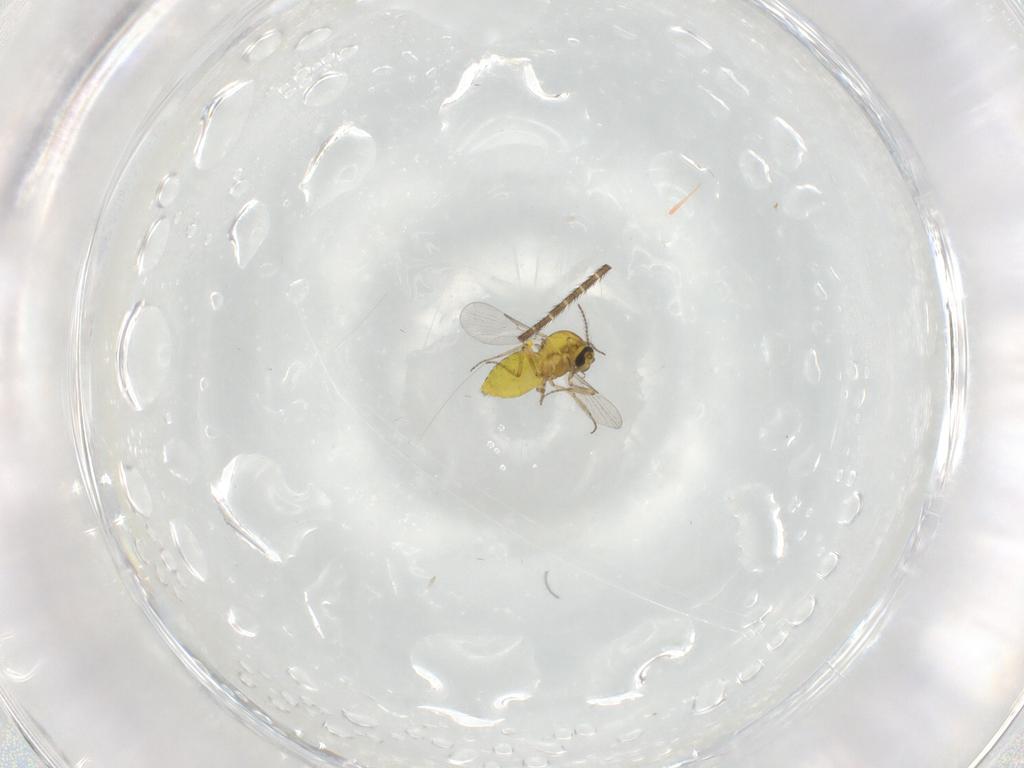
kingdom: Animalia
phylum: Arthropoda
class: Insecta
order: Diptera
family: Ceratopogonidae
